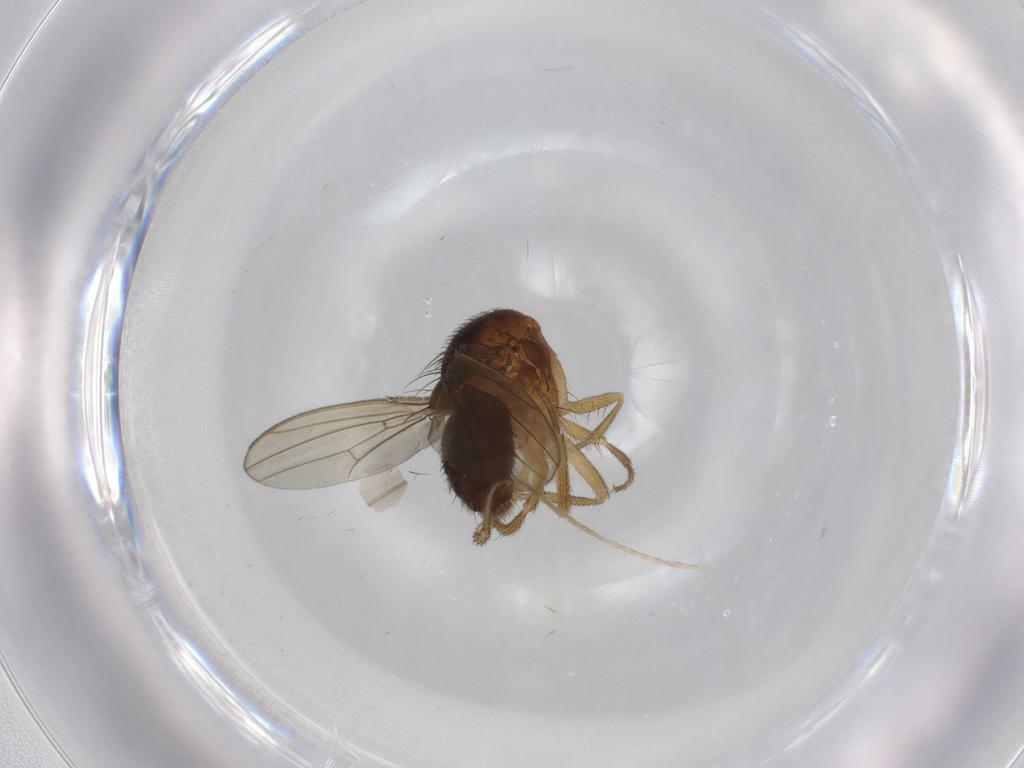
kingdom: Animalia
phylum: Arthropoda
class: Insecta
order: Diptera
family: Drosophilidae
